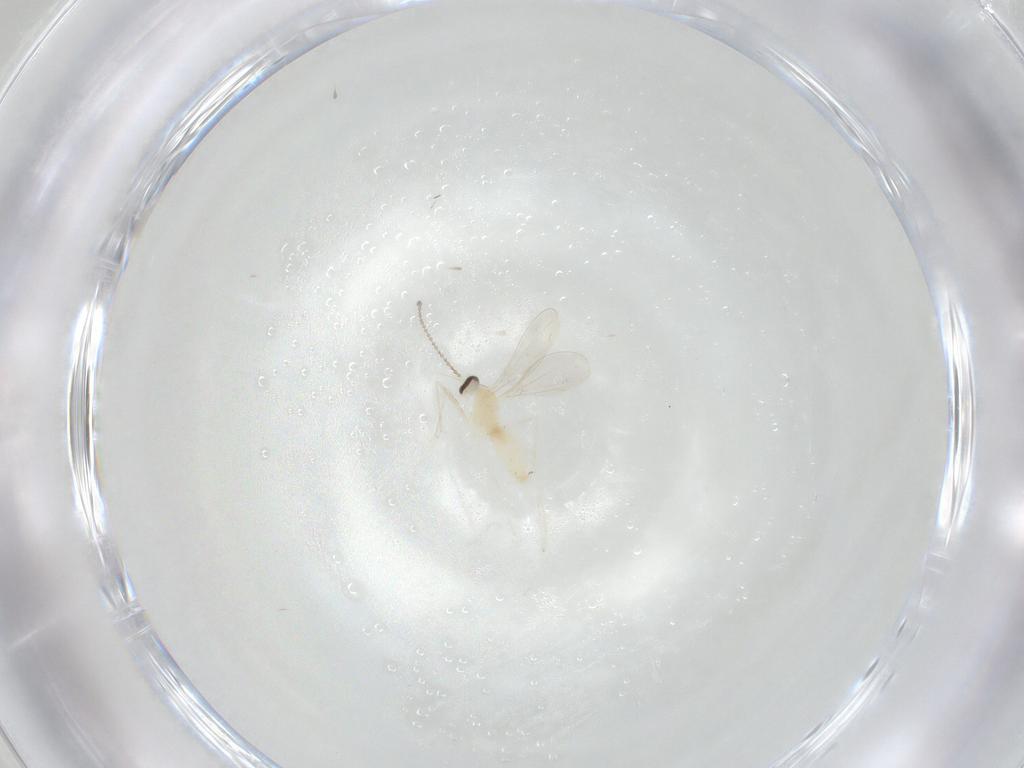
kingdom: Animalia
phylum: Arthropoda
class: Insecta
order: Diptera
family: Cecidomyiidae
